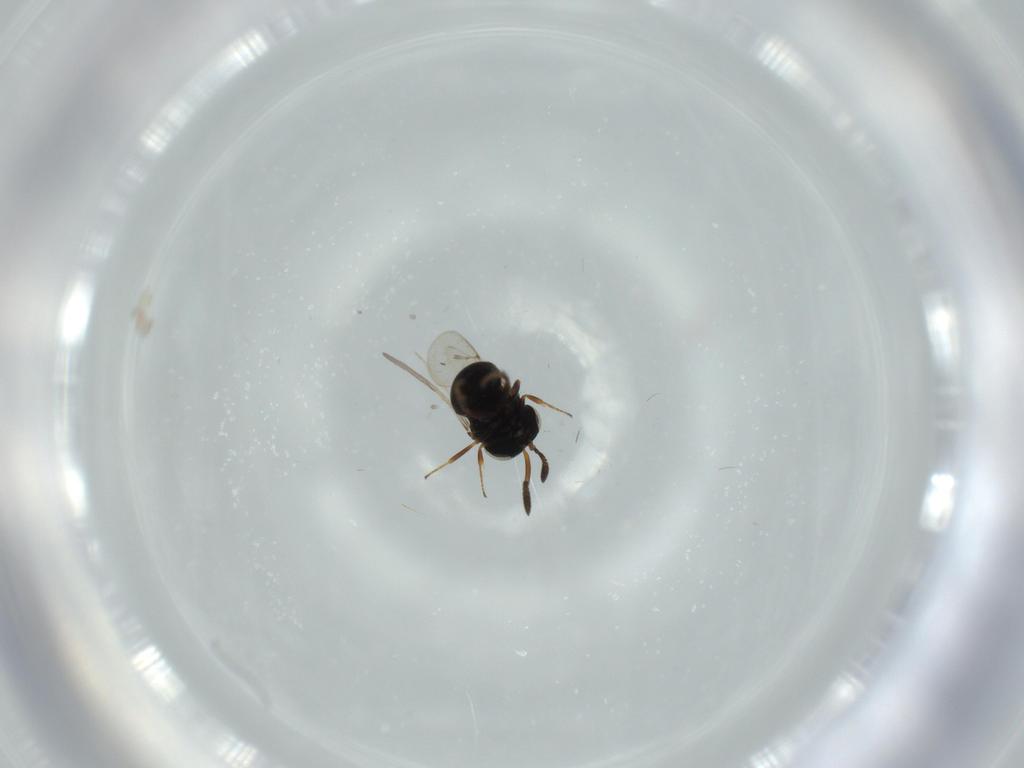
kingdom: Animalia
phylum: Arthropoda
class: Insecta
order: Hymenoptera
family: Scelionidae
